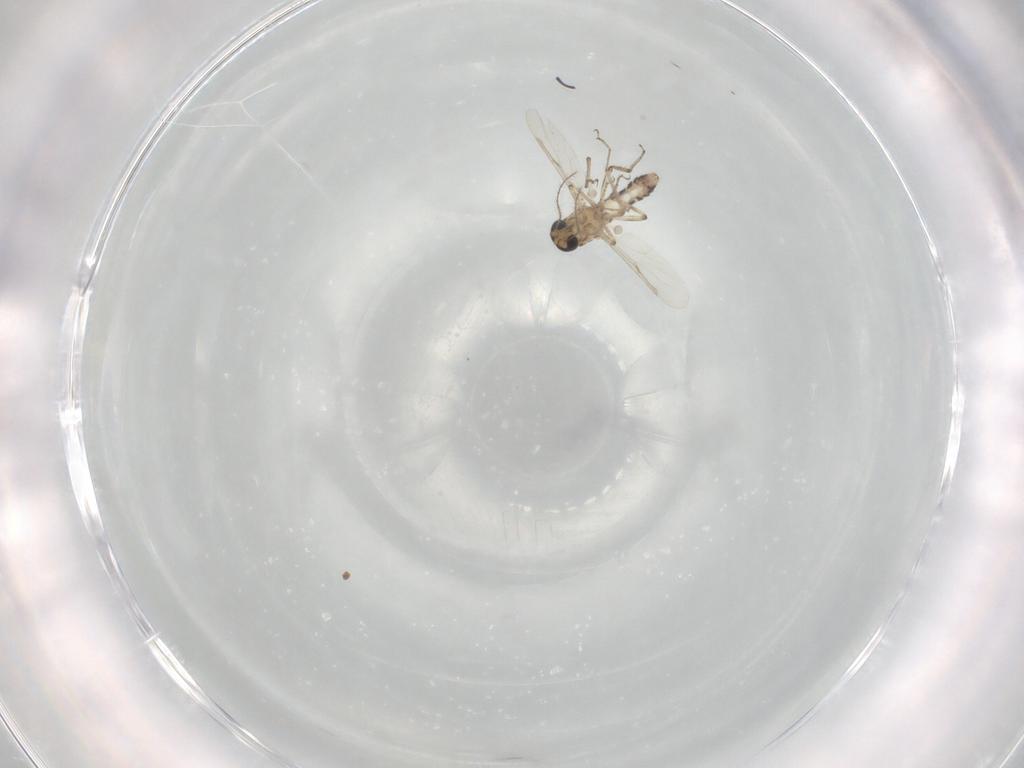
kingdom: Animalia
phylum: Arthropoda
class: Insecta
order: Diptera
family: Ceratopogonidae
